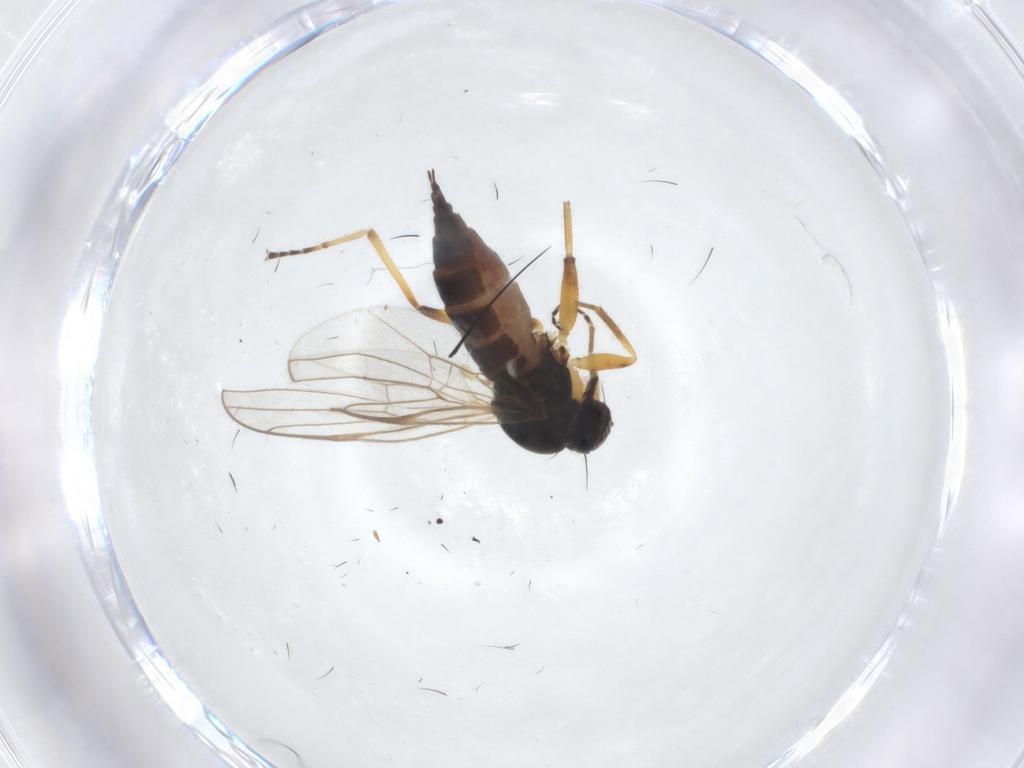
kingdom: Animalia
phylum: Arthropoda
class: Insecta
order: Diptera
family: Hybotidae
